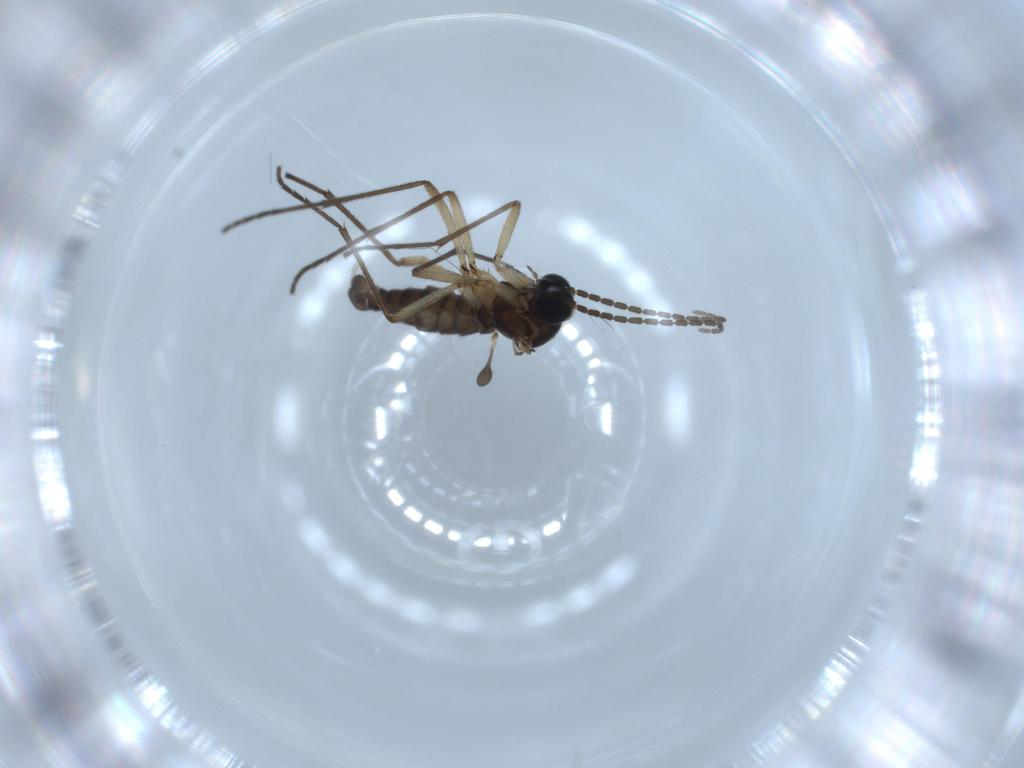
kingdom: Animalia
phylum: Arthropoda
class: Insecta
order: Diptera
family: Sciaridae
